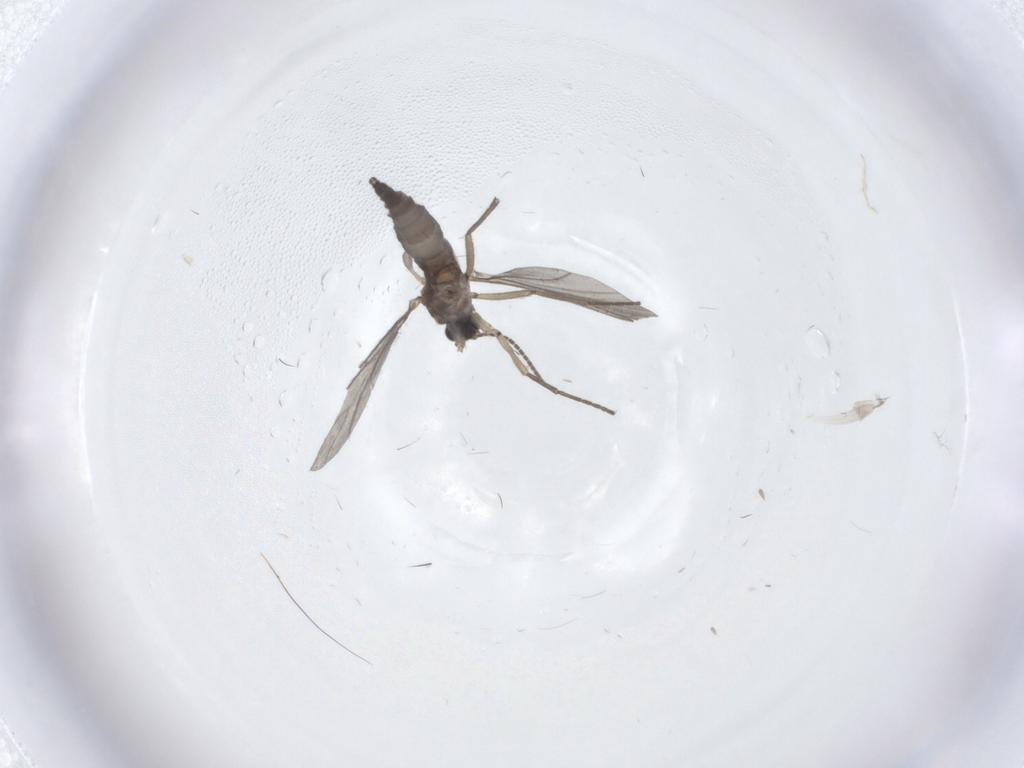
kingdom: Animalia
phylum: Arthropoda
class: Insecta
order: Diptera
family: Sciaridae
